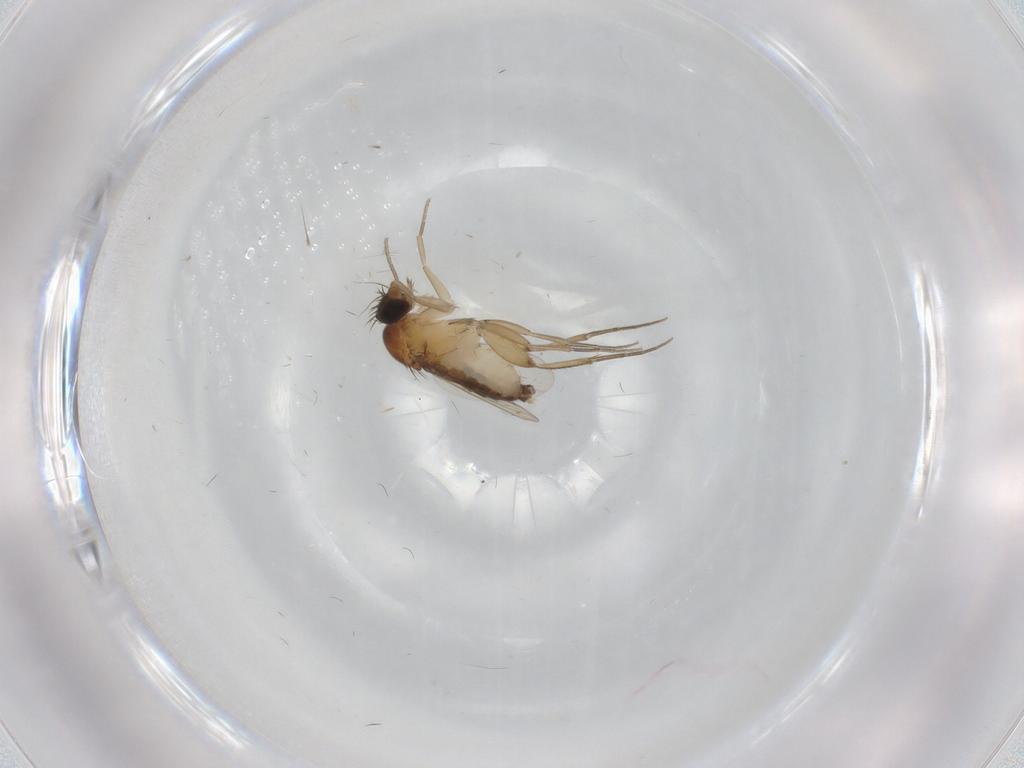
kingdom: Animalia
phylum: Arthropoda
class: Insecta
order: Diptera
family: Phoridae
